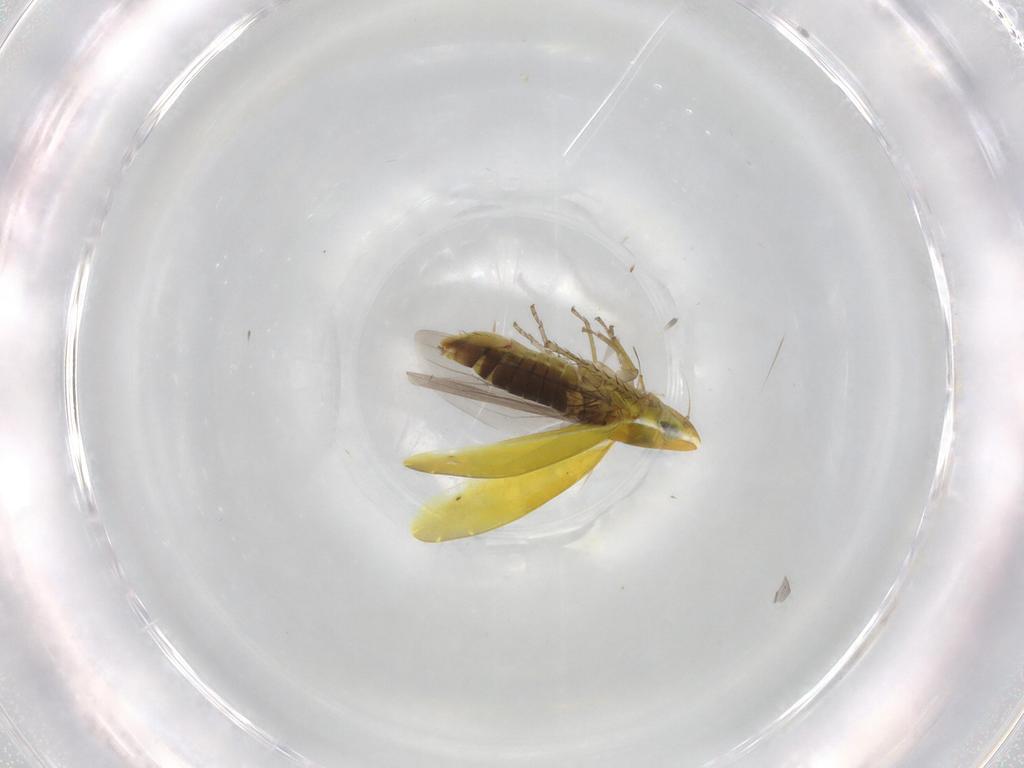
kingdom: Animalia
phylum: Arthropoda
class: Insecta
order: Hemiptera
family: Cicadellidae
